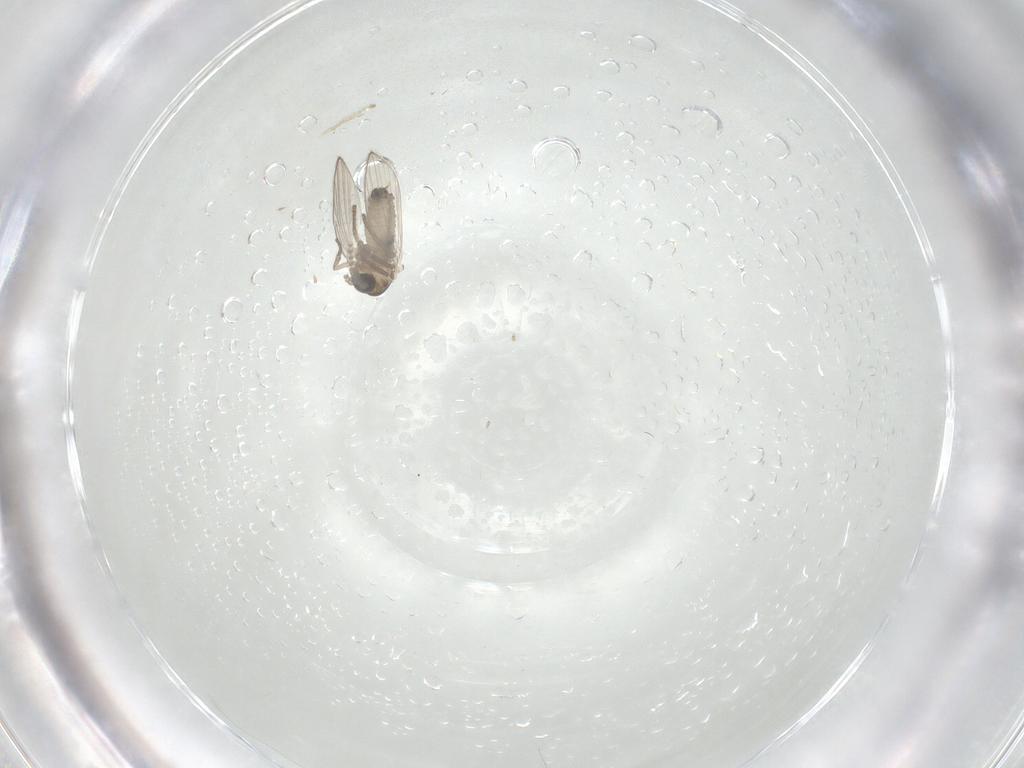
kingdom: Animalia
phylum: Arthropoda
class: Insecta
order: Diptera
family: Psychodidae
